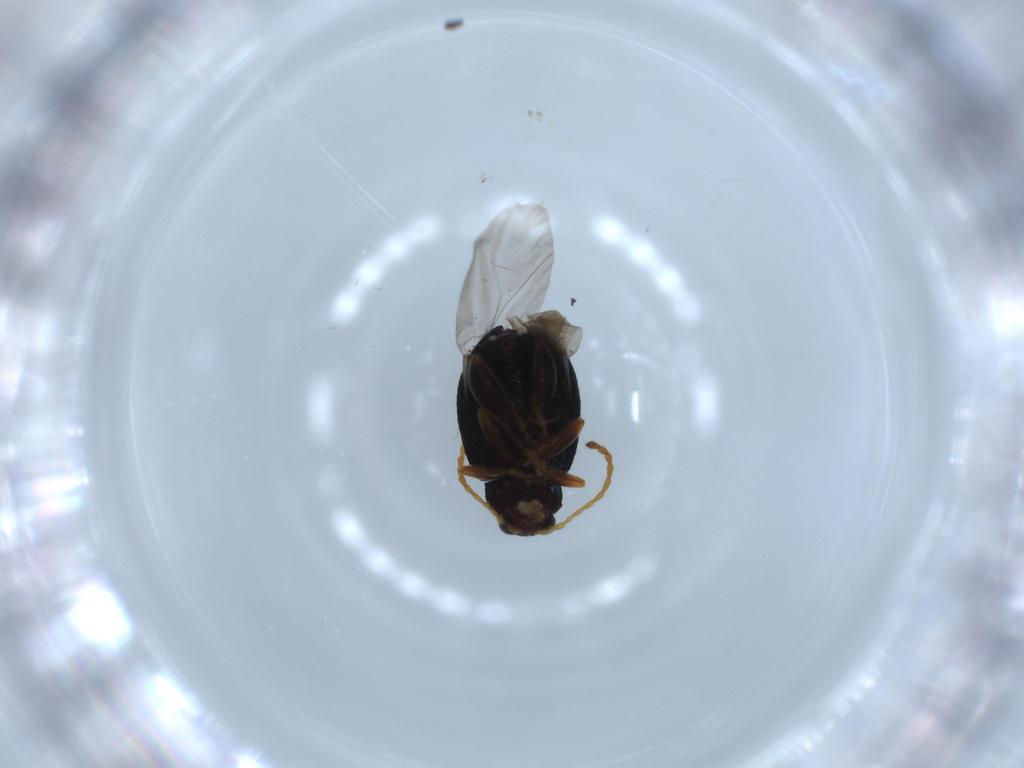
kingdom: Animalia
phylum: Arthropoda
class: Insecta
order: Coleoptera
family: Chrysomelidae
